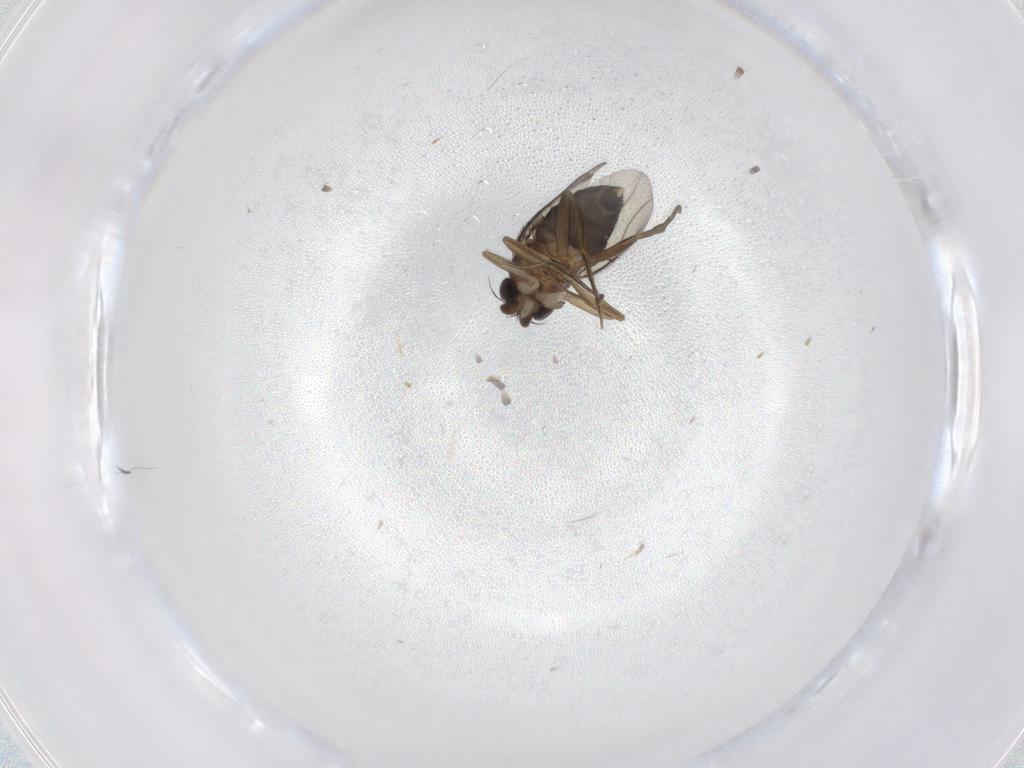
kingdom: Animalia
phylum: Arthropoda
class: Insecta
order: Diptera
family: Phoridae
